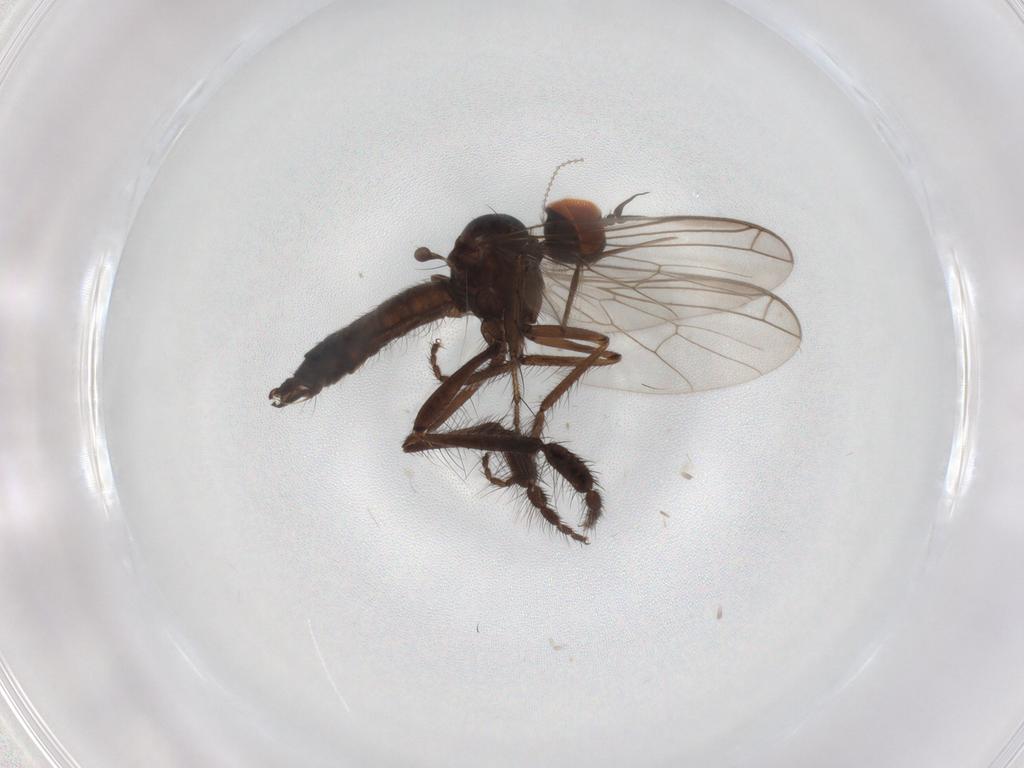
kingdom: Animalia
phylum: Arthropoda
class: Insecta
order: Diptera
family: Empididae
